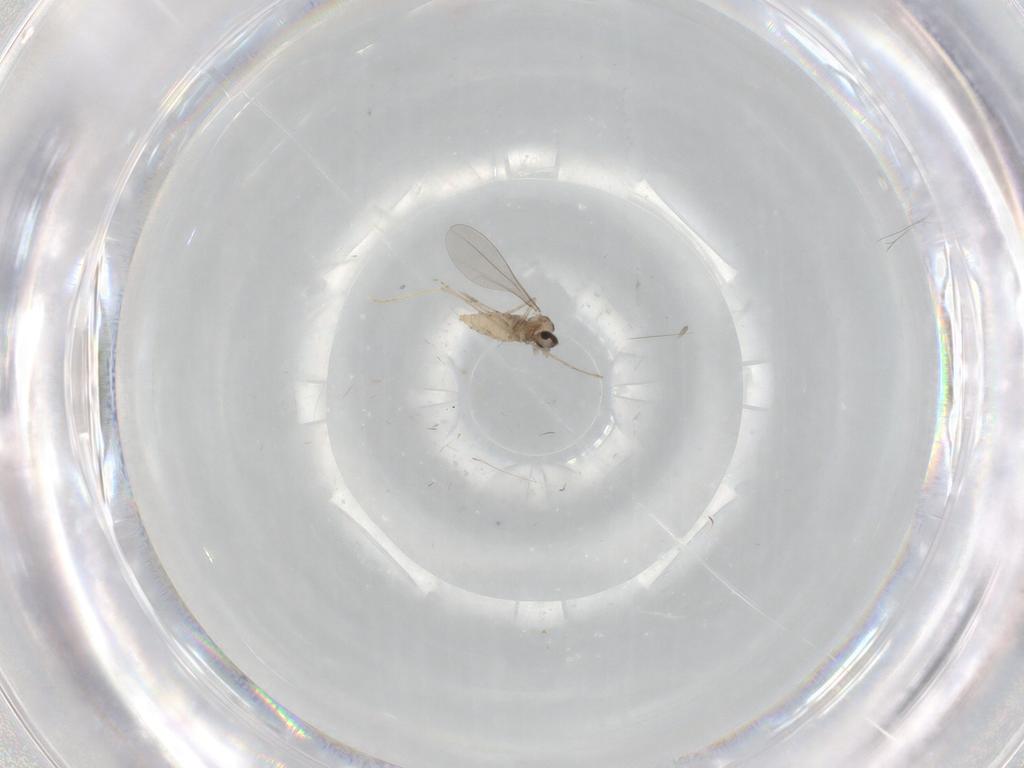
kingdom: Animalia
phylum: Arthropoda
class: Insecta
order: Diptera
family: Cecidomyiidae
